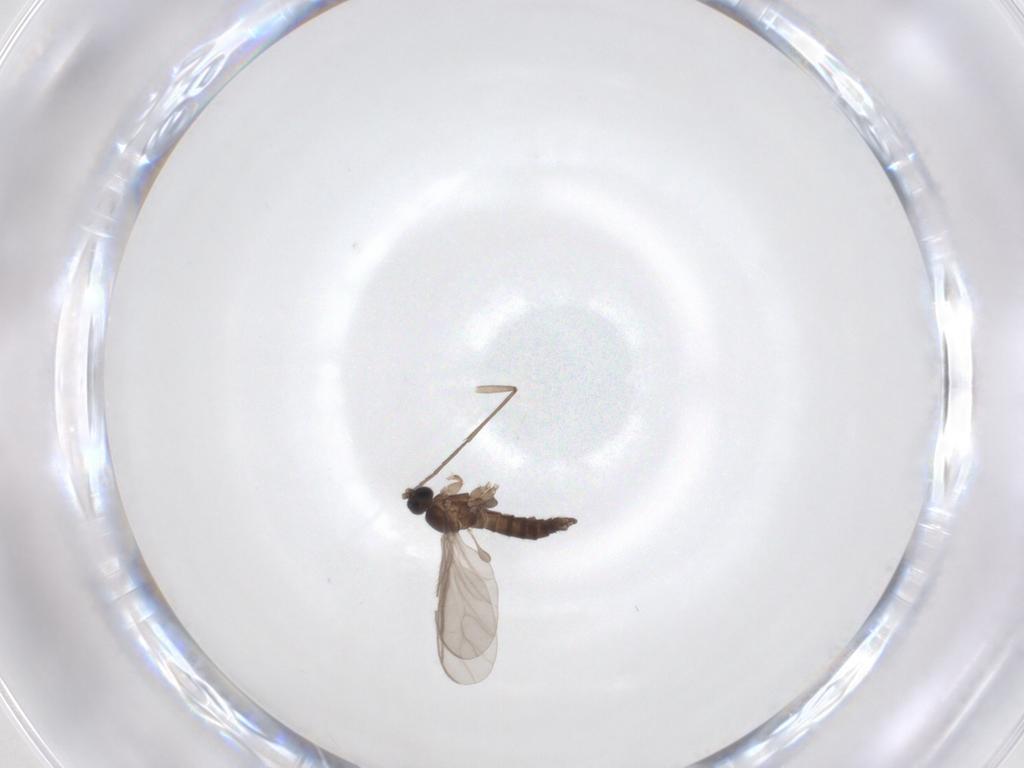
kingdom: Animalia
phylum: Arthropoda
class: Insecta
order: Diptera
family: Sciaridae
